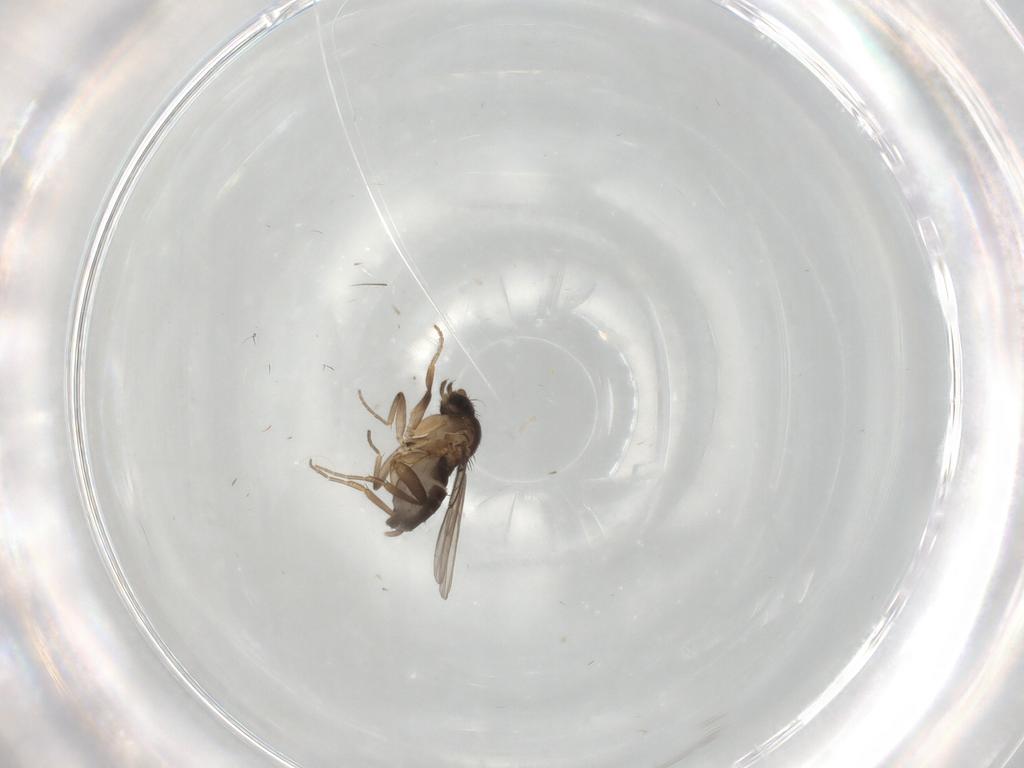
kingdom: Animalia
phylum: Arthropoda
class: Insecta
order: Diptera
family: Phoridae
